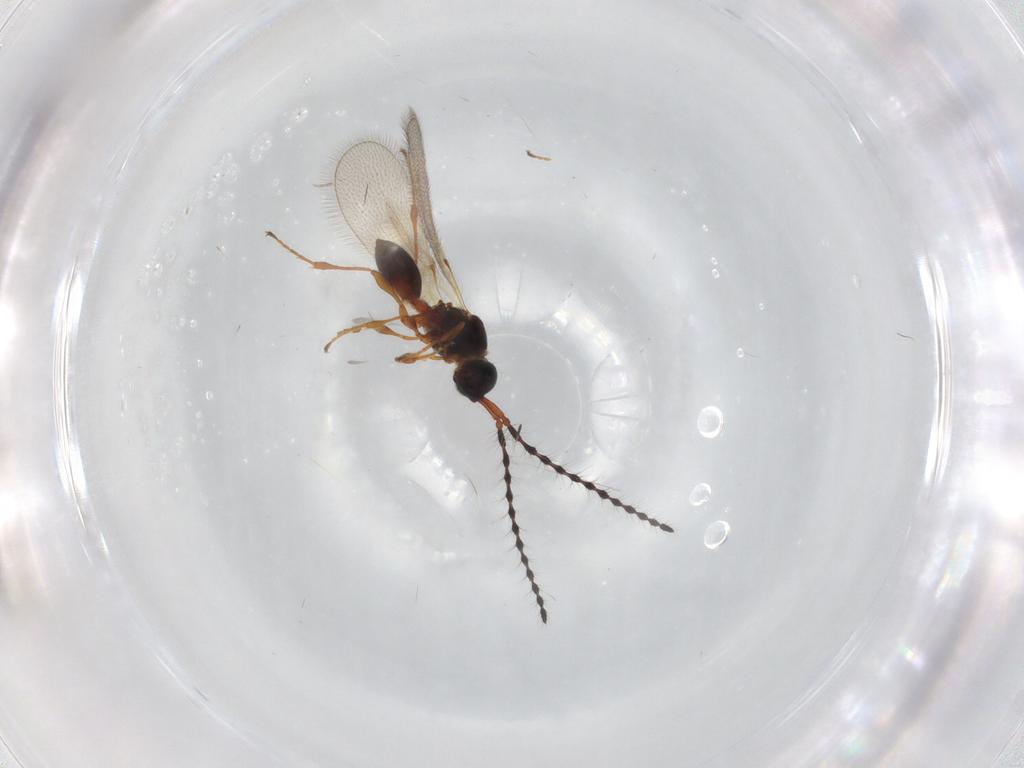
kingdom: Animalia
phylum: Arthropoda
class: Insecta
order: Hymenoptera
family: Diapriidae
